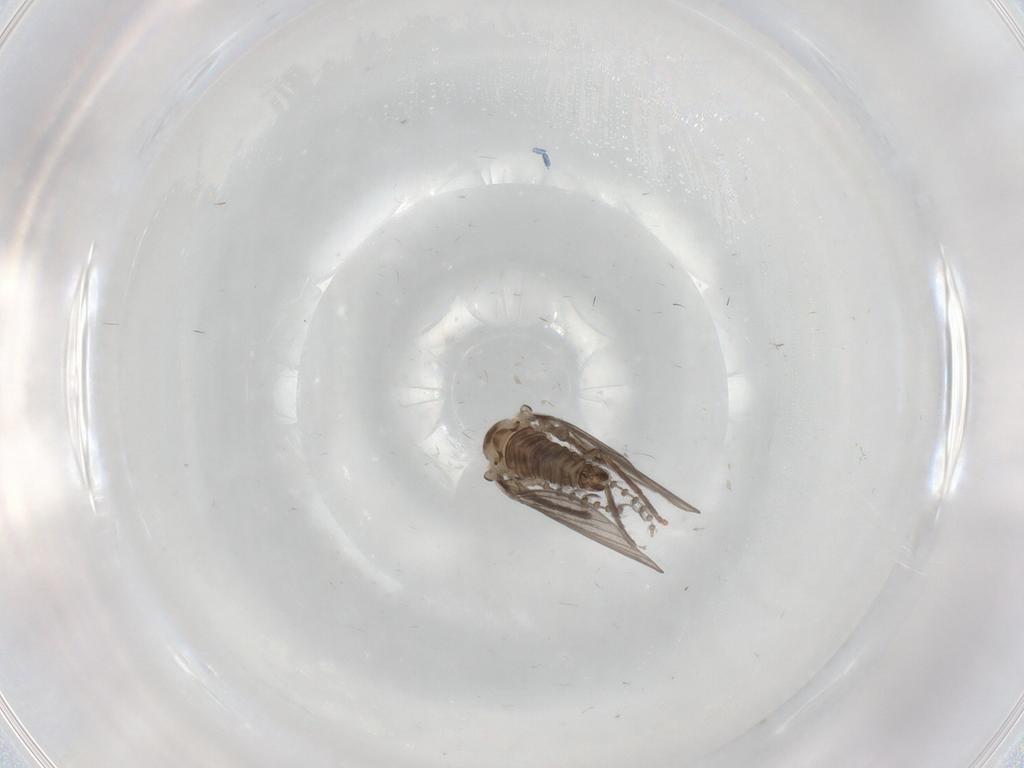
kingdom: Animalia
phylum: Arthropoda
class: Insecta
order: Diptera
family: Psychodidae
